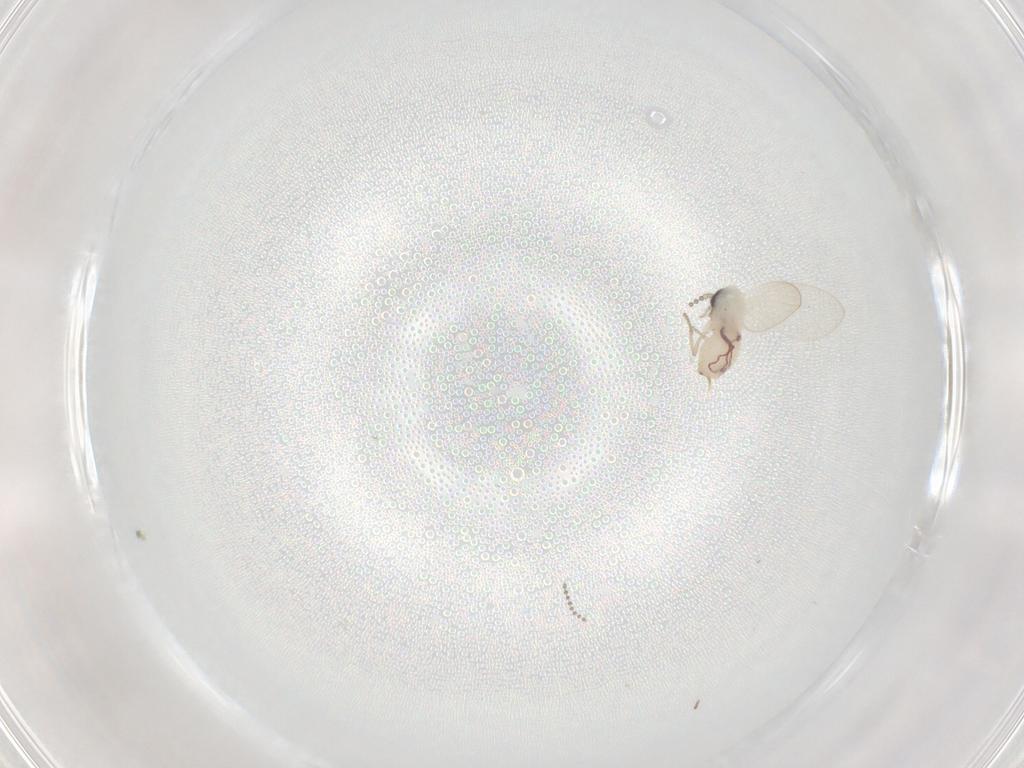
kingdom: Animalia
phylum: Arthropoda
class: Insecta
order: Diptera
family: Psychodidae
